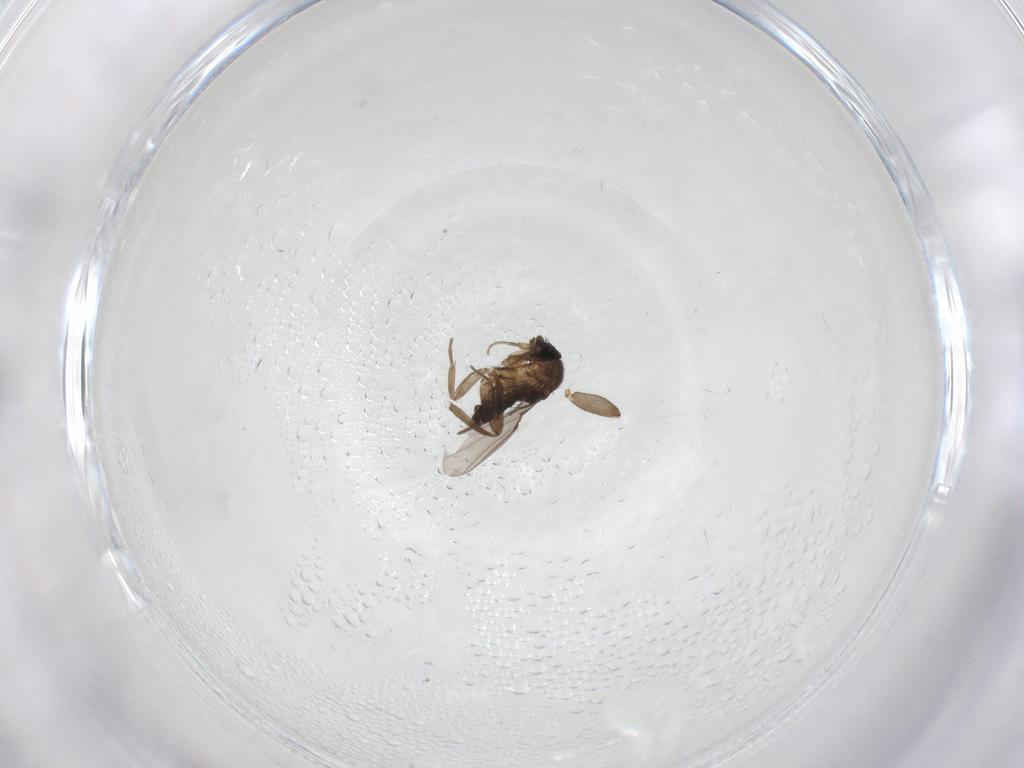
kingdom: Animalia
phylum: Arthropoda
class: Insecta
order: Diptera
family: Phoridae
